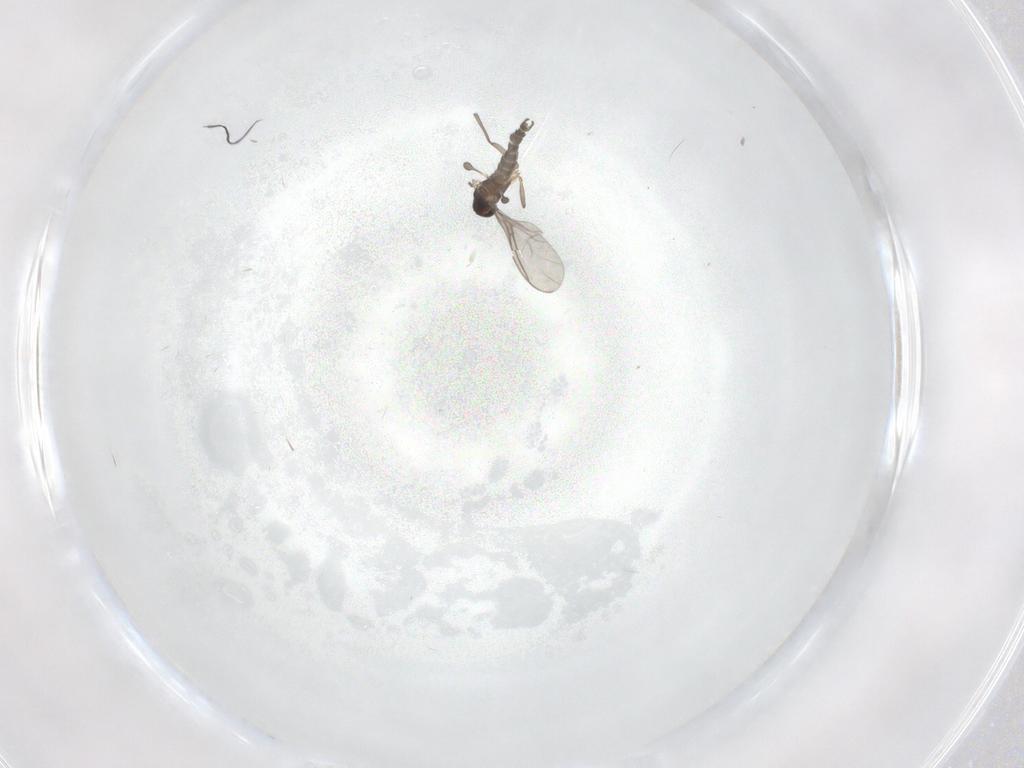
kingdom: Animalia
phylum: Arthropoda
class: Insecta
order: Diptera
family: Sciaridae
